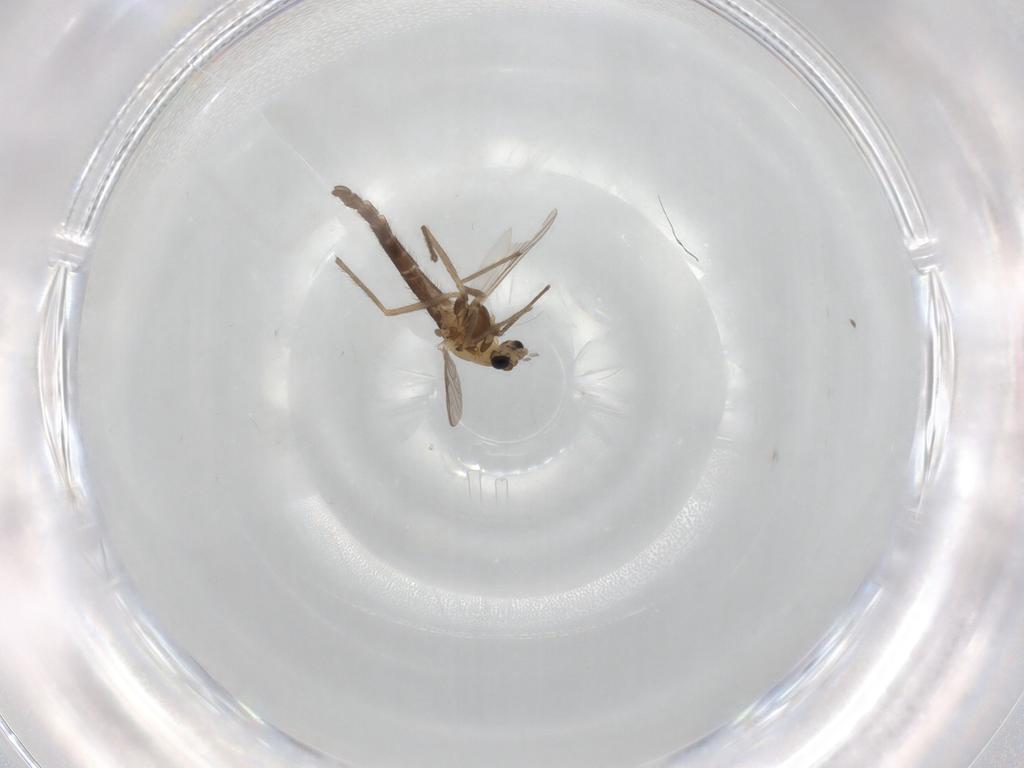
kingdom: Animalia
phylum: Arthropoda
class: Insecta
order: Diptera
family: Chironomidae
